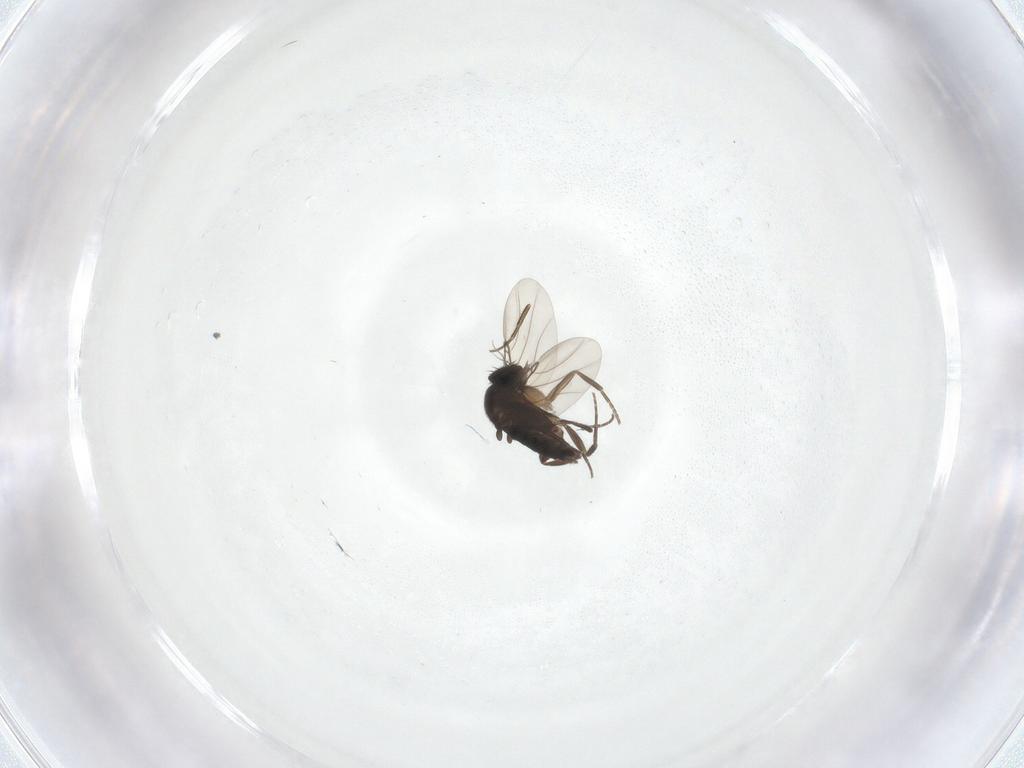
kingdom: Animalia
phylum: Arthropoda
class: Insecta
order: Diptera
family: Phoridae
